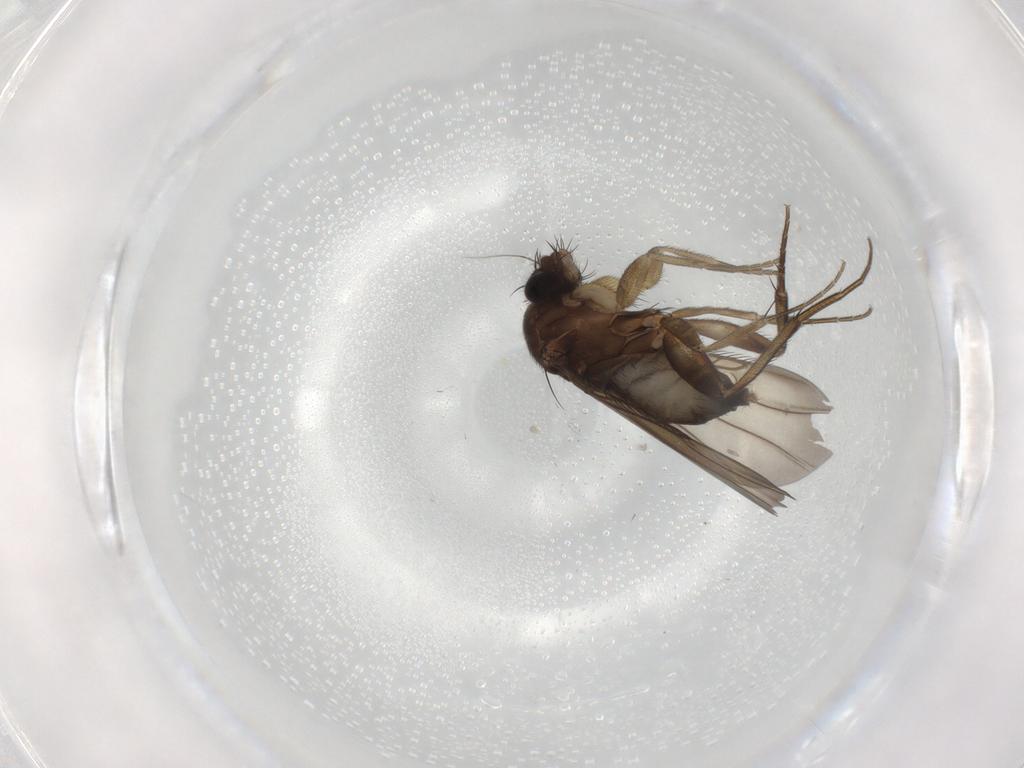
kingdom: Animalia
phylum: Arthropoda
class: Insecta
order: Diptera
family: Phoridae
